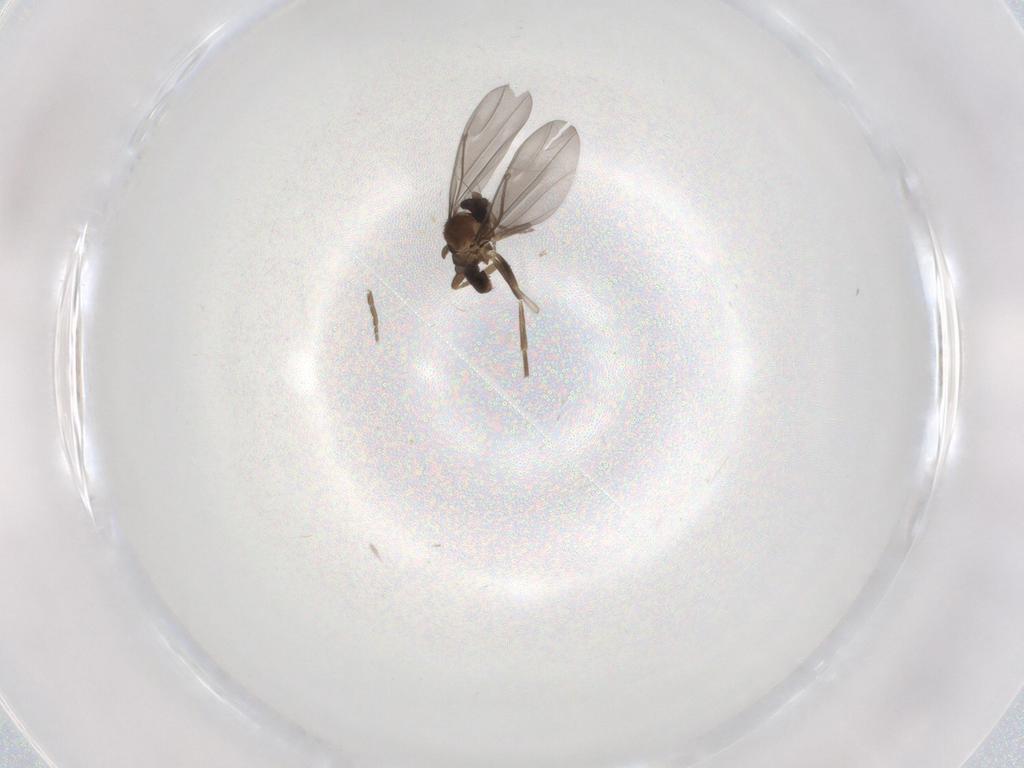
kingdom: Animalia
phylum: Arthropoda
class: Insecta
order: Diptera
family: Phoridae
